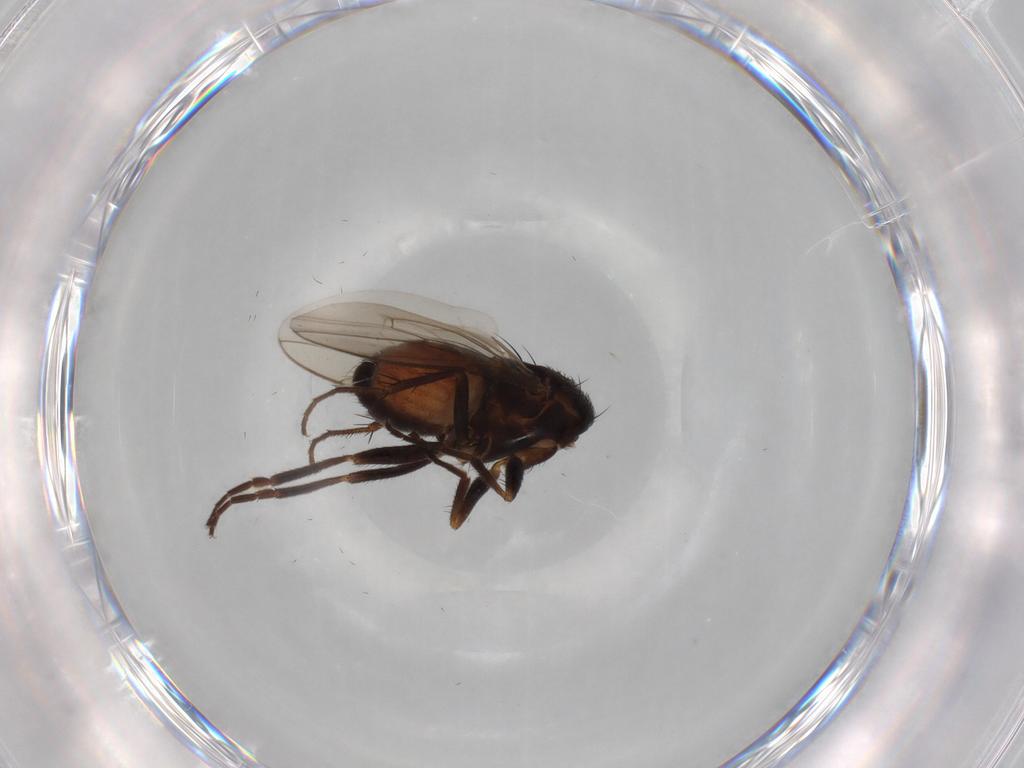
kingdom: Animalia
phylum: Arthropoda
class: Insecta
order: Diptera
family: Sphaeroceridae
